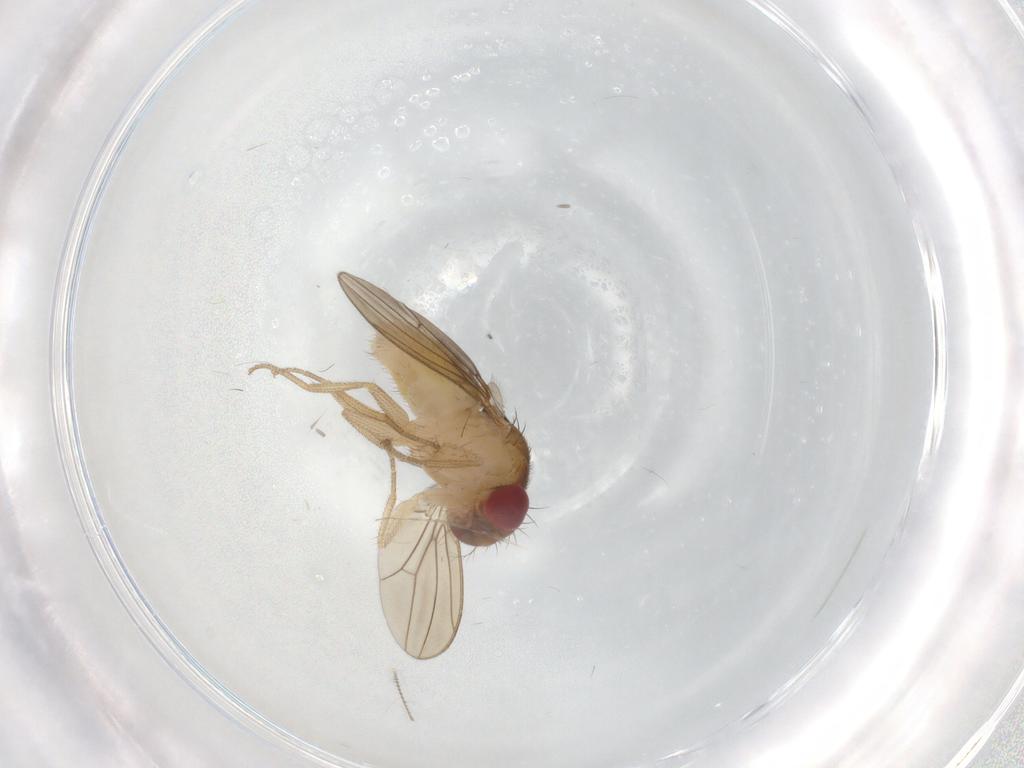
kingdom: Animalia
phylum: Arthropoda
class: Insecta
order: Diptera
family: Drosophilidae
